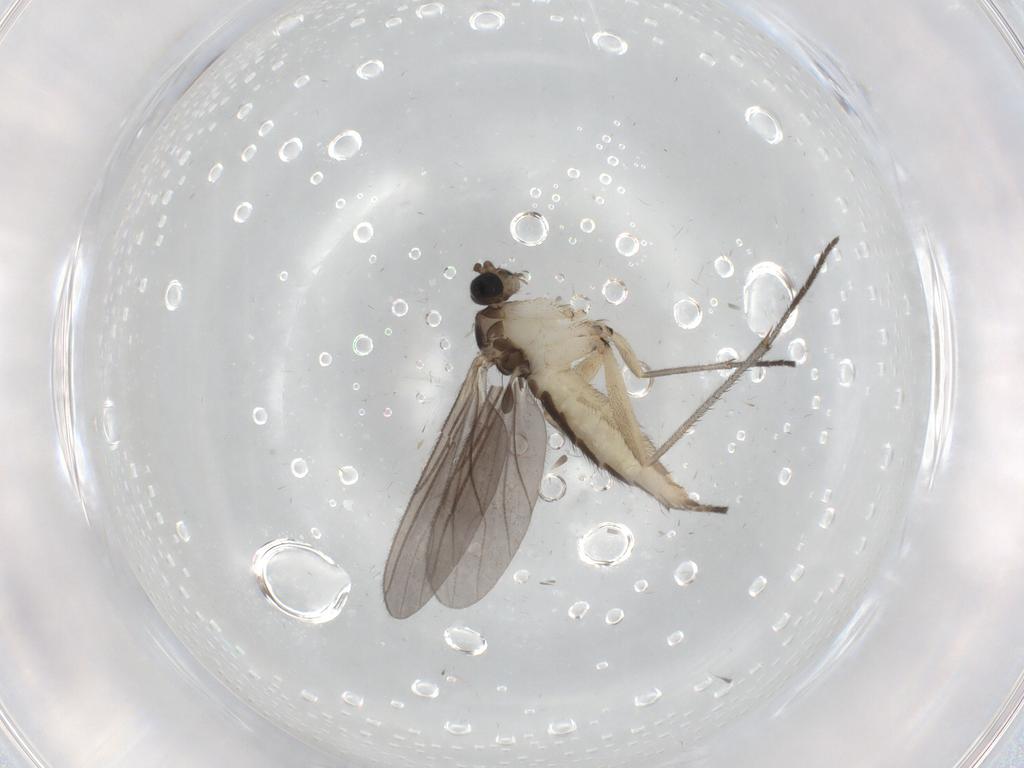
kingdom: Animalia
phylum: Arthropoda
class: Insecta
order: Diptera
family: Sciaridae
